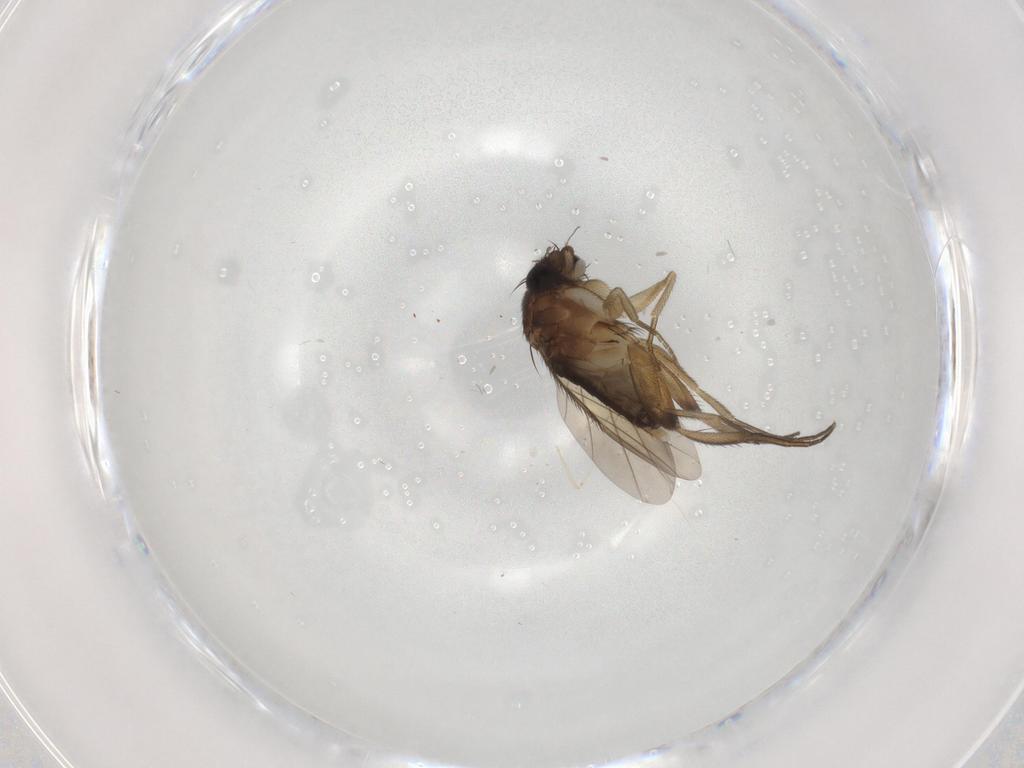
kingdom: Animalia
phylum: Arthropoda
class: Insecta
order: Diptera
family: Phoridae
